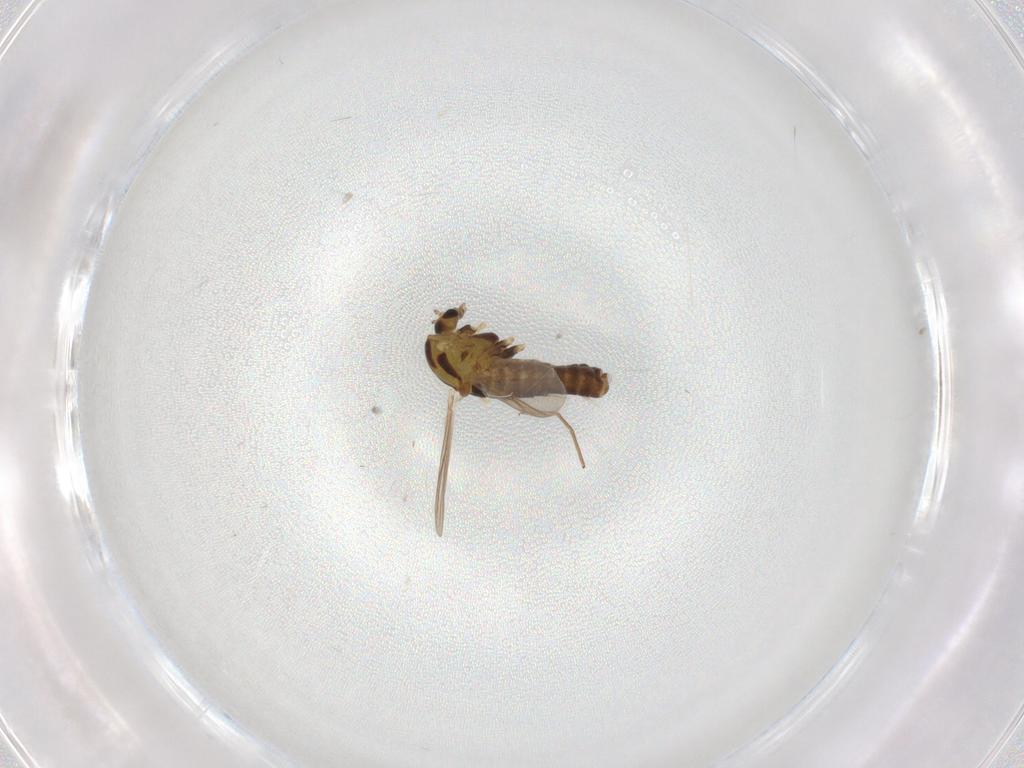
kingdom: Animalia
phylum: Arthropoda
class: Insecta
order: Diptera
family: Chironomidae
